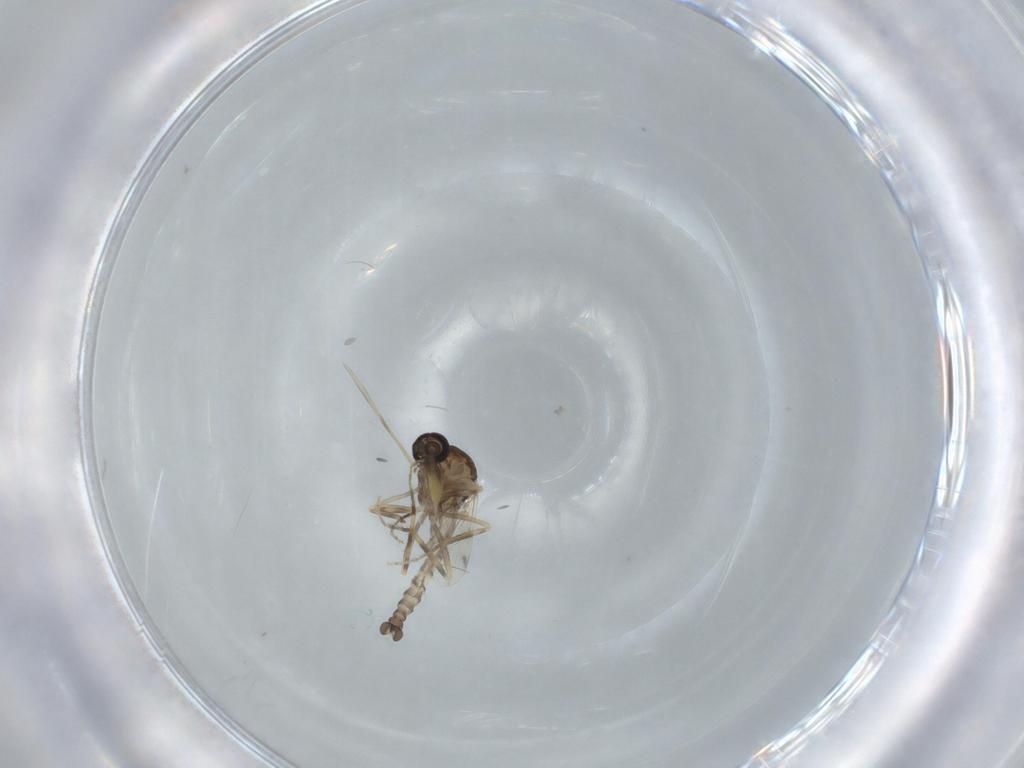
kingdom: Animalia
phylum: Arthropoda
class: Insecta
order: Diptera
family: Ceratopogonidae
